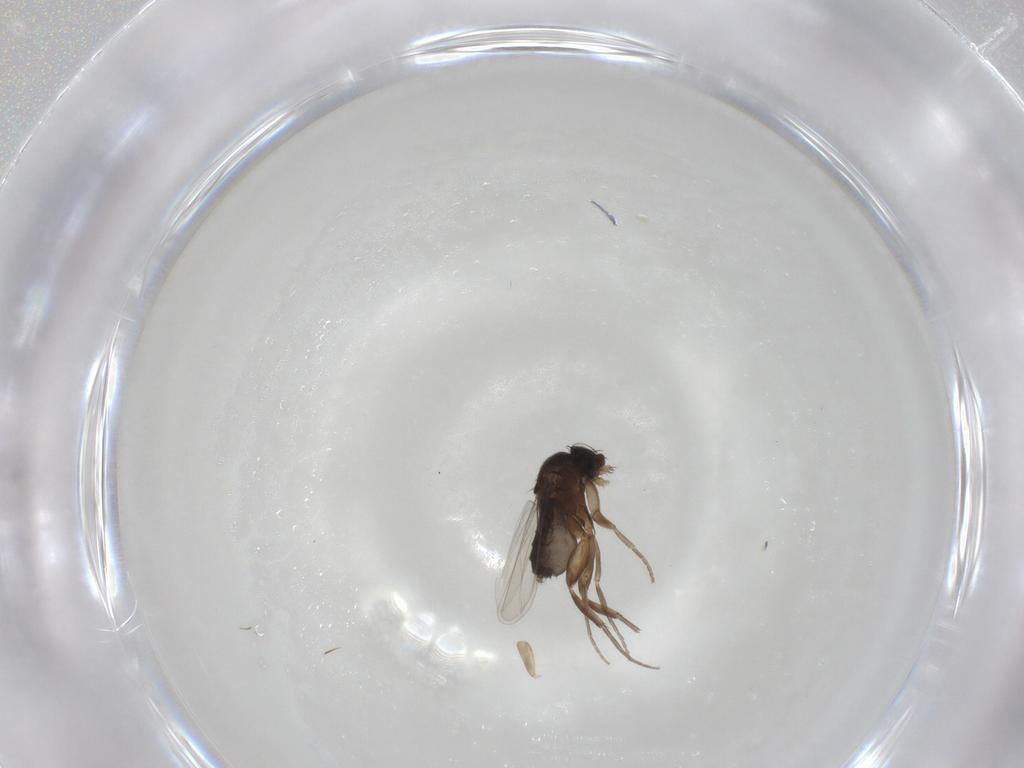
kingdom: Animalia
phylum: Arthropoda
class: Insecta
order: Diptera
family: Phoridae
